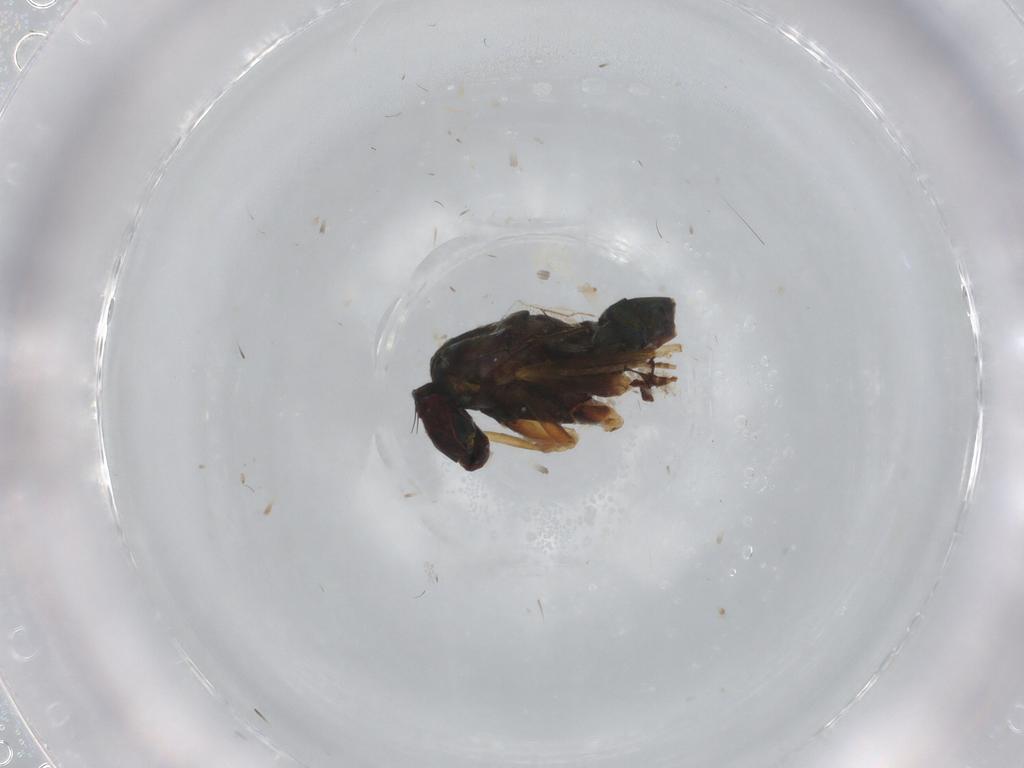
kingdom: Animalia
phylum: Arthropoda
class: Insecta
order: Diptera
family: Dolichopodidae
